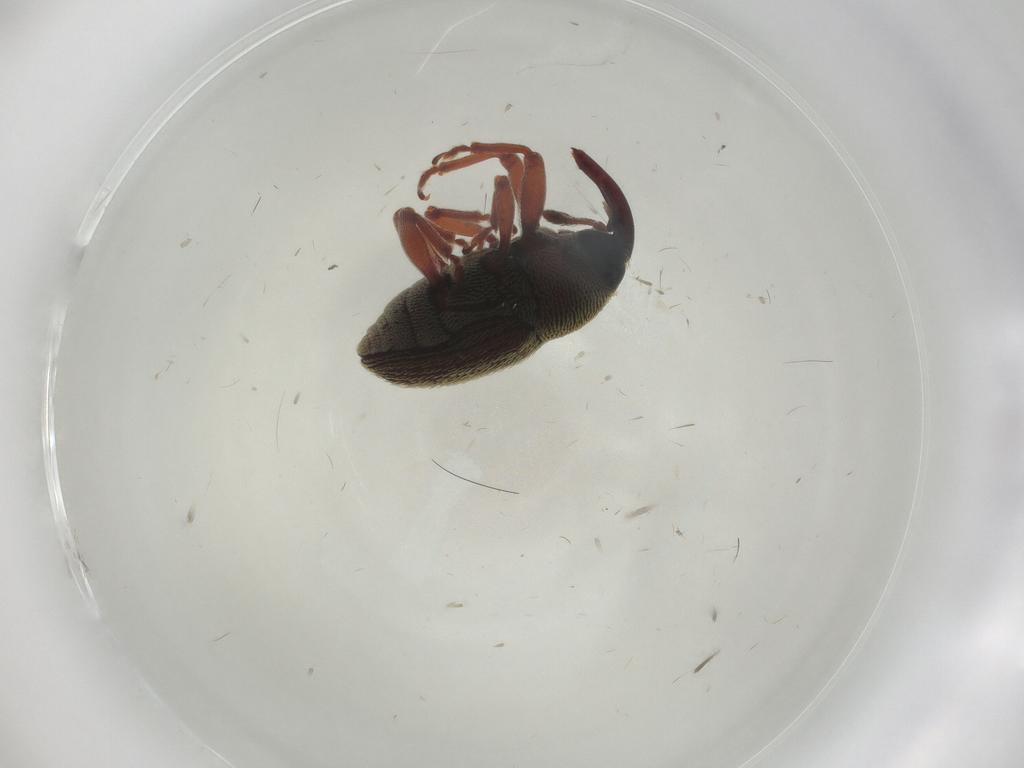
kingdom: Animalia
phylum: Arthropoda
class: Insecta
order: Coleoptera
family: Curculionidae
